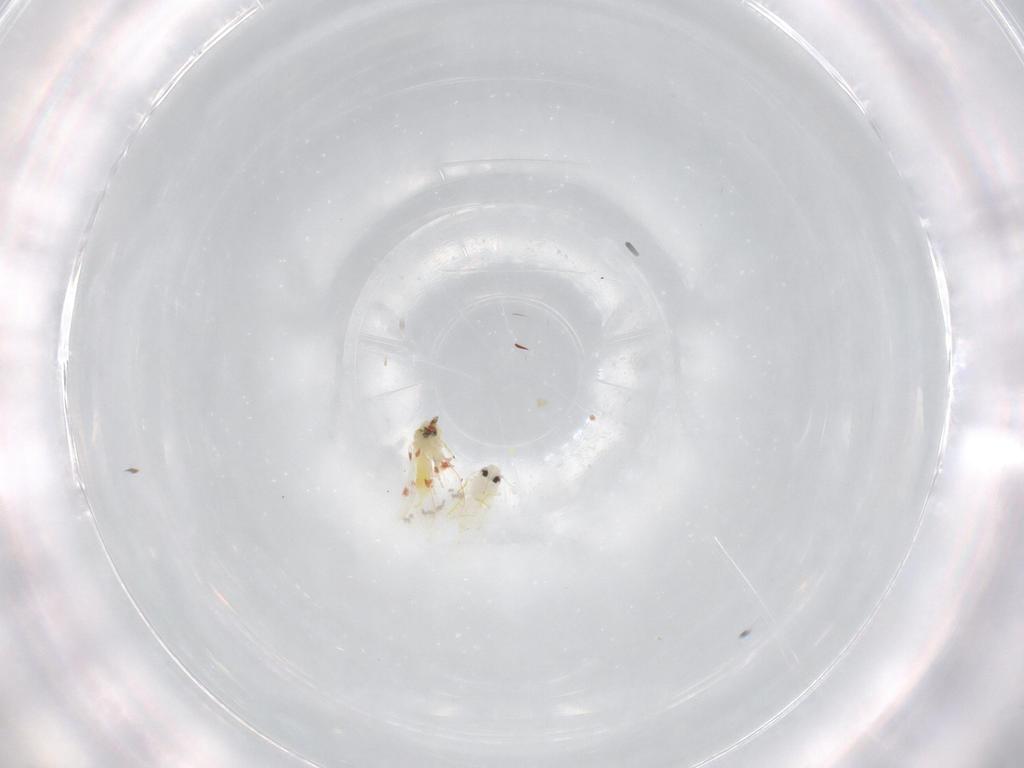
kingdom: Animalia
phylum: Arthropoda
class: Insecta
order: Hemiptera
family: Aleyrodidae
